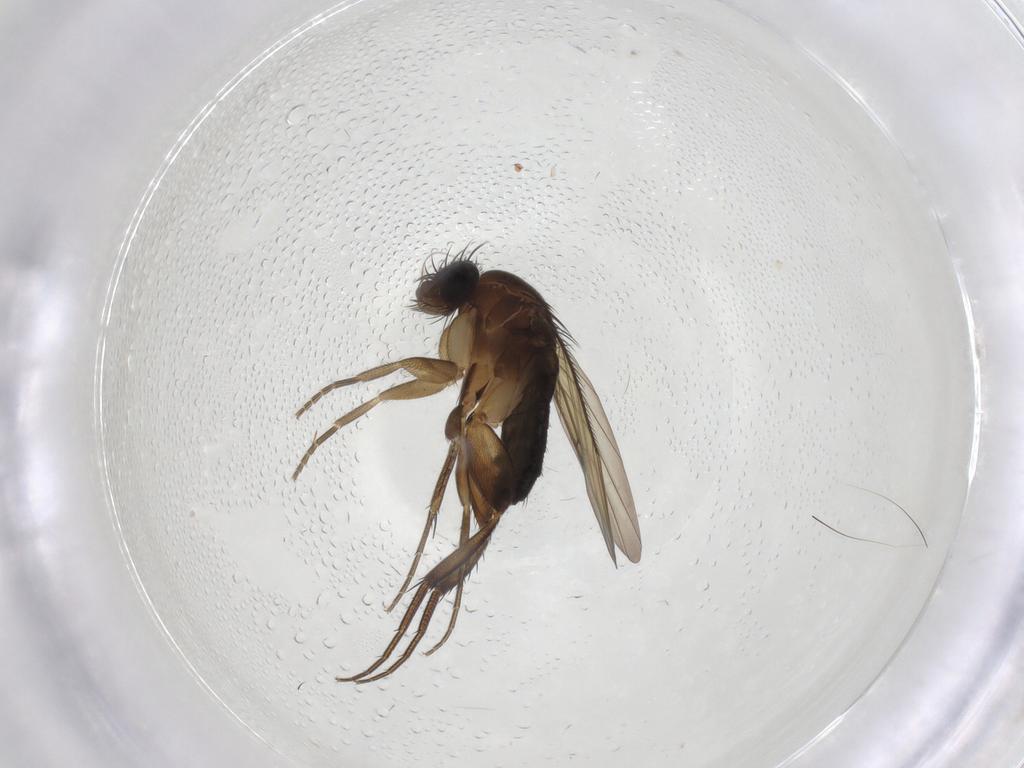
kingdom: Animalia
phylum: Arthropoda
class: Insecta
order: Diptera
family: Phoridae
